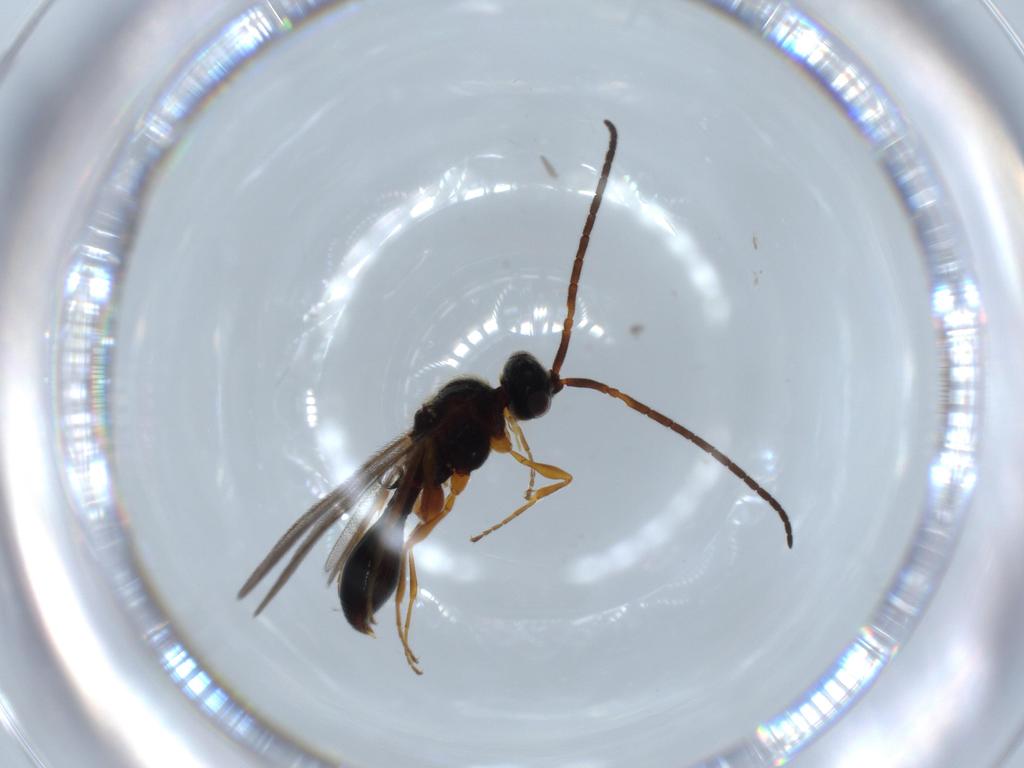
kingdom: Animalia
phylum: Arthropoda
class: Insecta
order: Hymenoptera
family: Diapriidae
